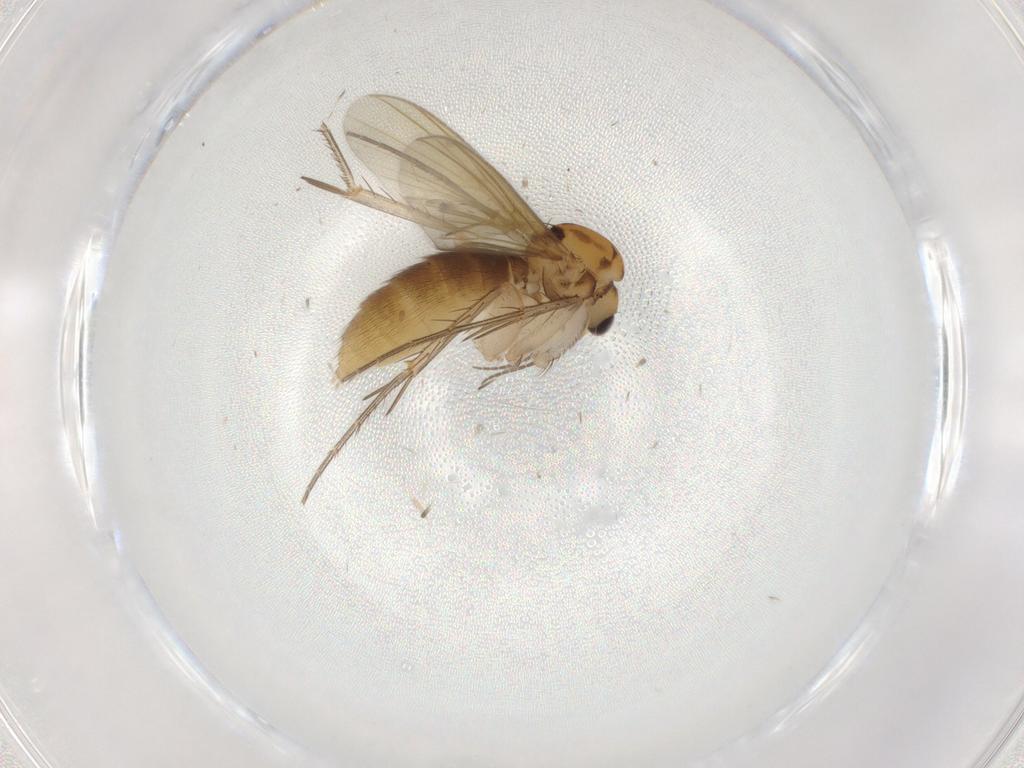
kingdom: Animalia
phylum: Arthropoda
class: Insecta
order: Diptera
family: Mycetophilidae
